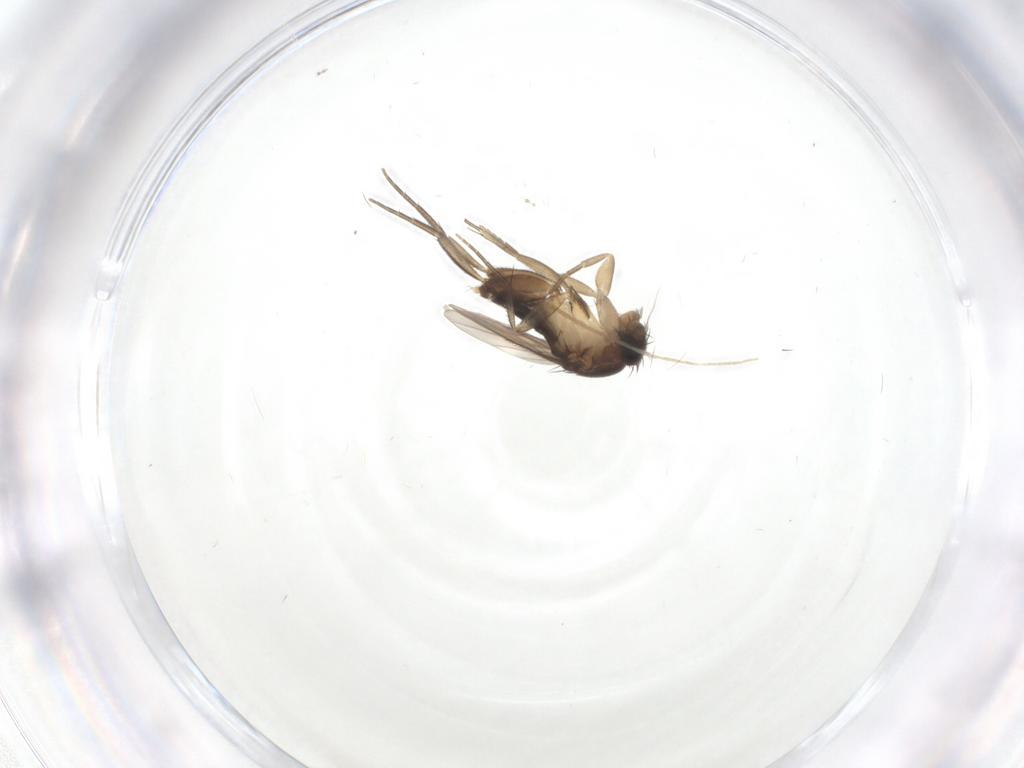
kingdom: Animalia
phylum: Arthropoda
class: Insecta
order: Diptera
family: Phoridae
